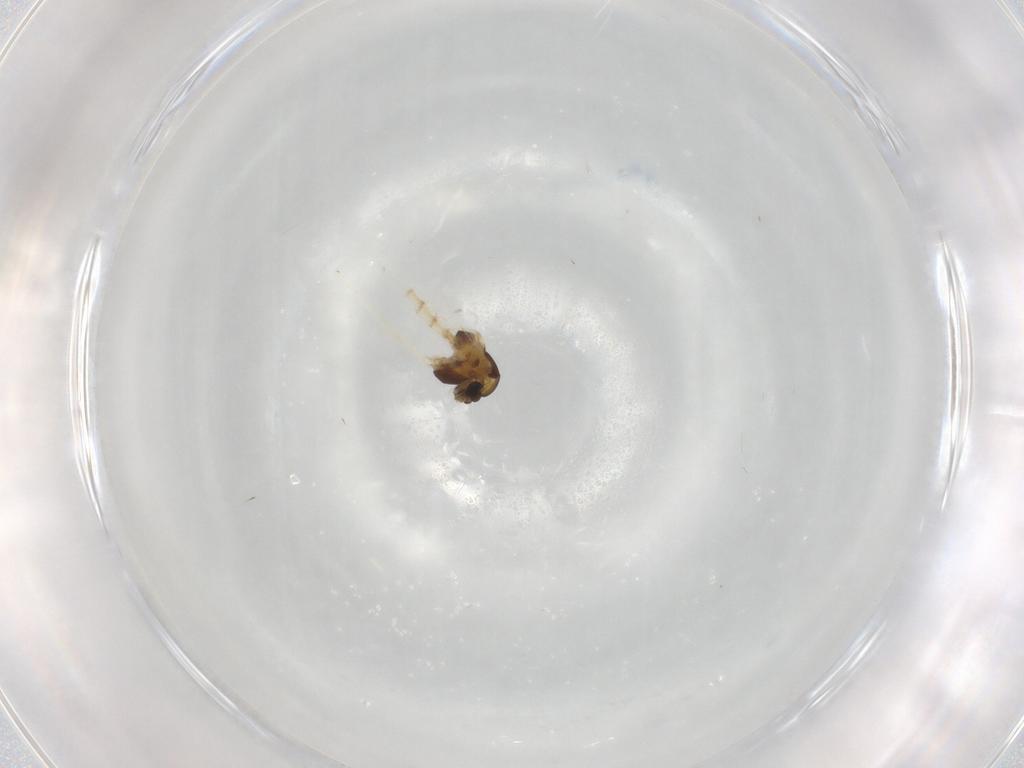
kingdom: Animalia
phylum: Arthropoda
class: Insecta
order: Diptera
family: Chironomidae
